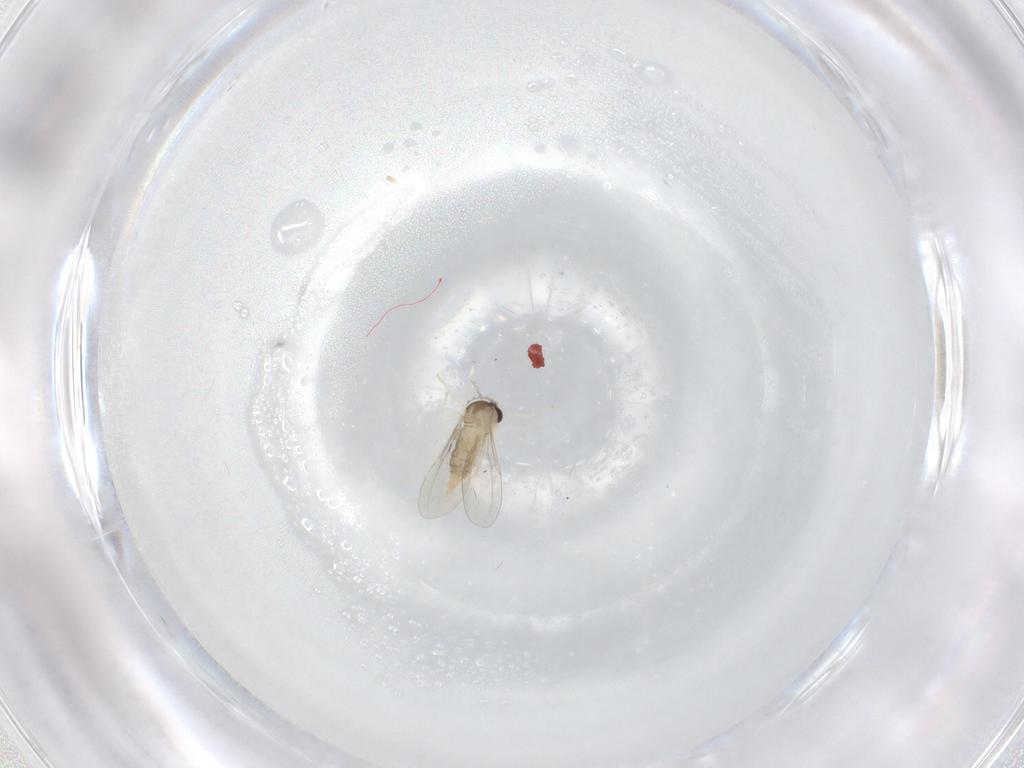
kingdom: Animalia
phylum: Arthropoda
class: Insecta
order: Diptera
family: Cecidomyiidae
